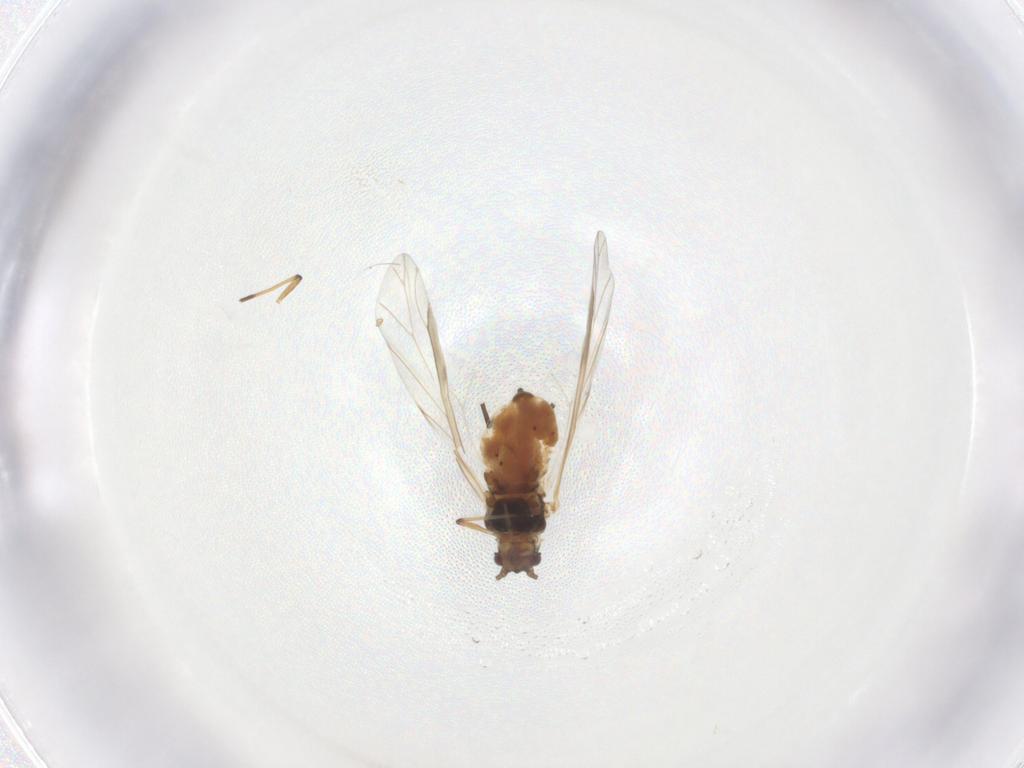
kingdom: Animalia
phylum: Arthropoda
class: Insecta
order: Hemiptera
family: Aphididae
